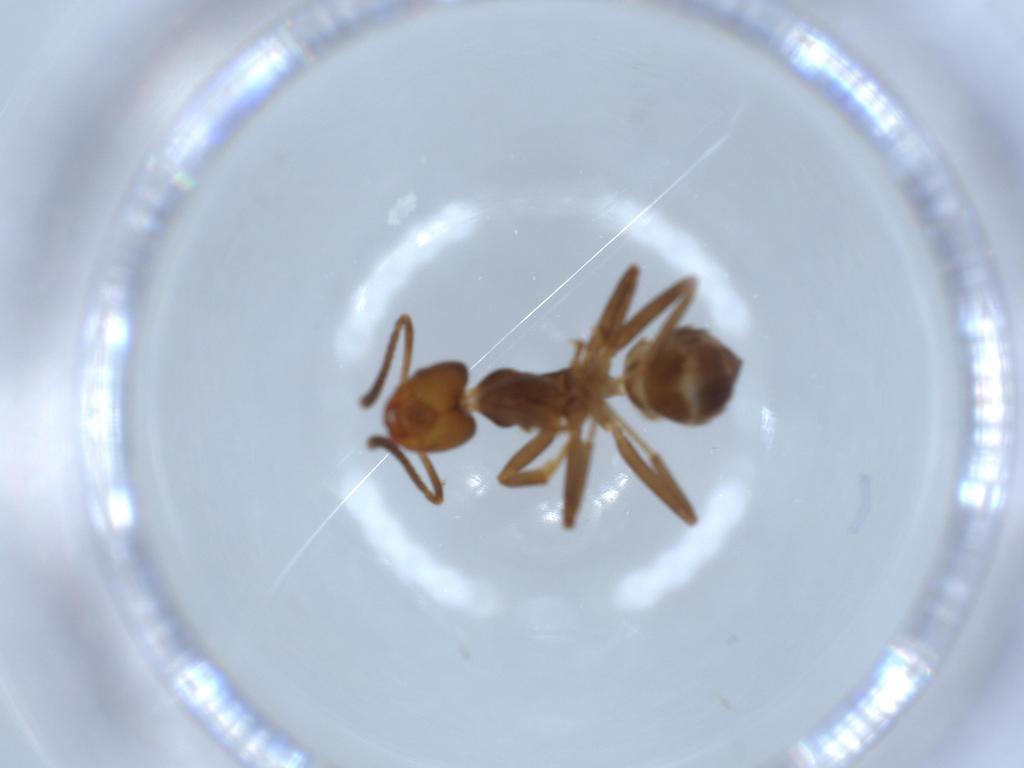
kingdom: Animalia
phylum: Arthropoda
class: Insecta
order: Hymenoptera
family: Formicidae
